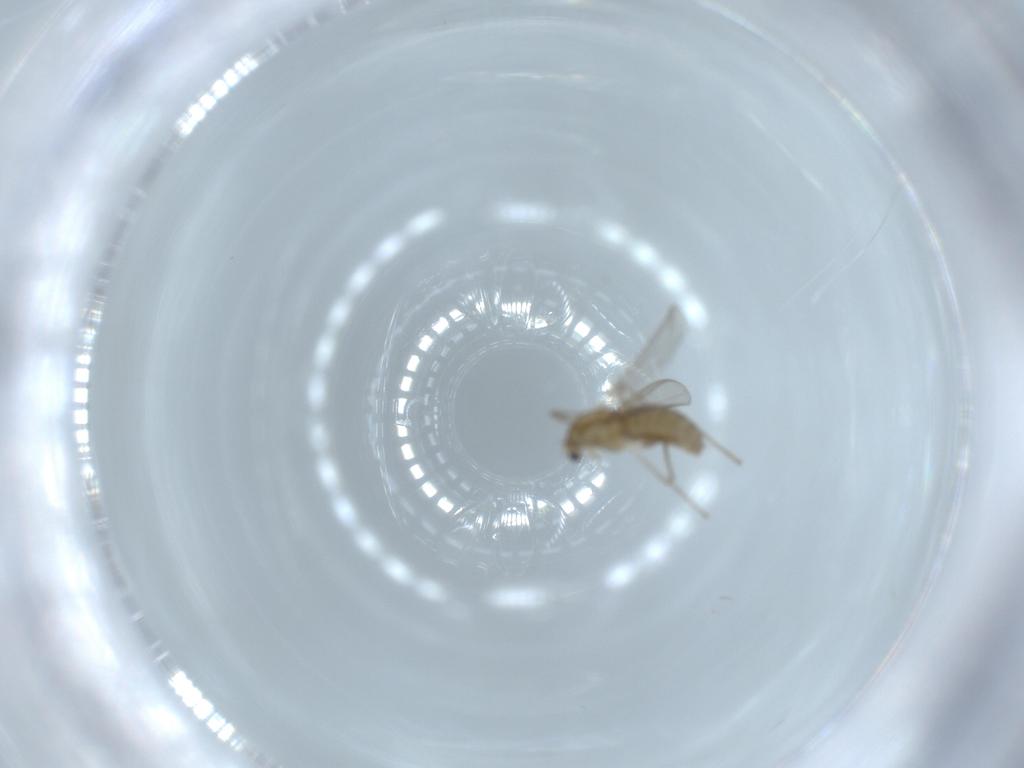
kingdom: Animalia
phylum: Arthropoda
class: Insecta
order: Diptera
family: Chironomidae
